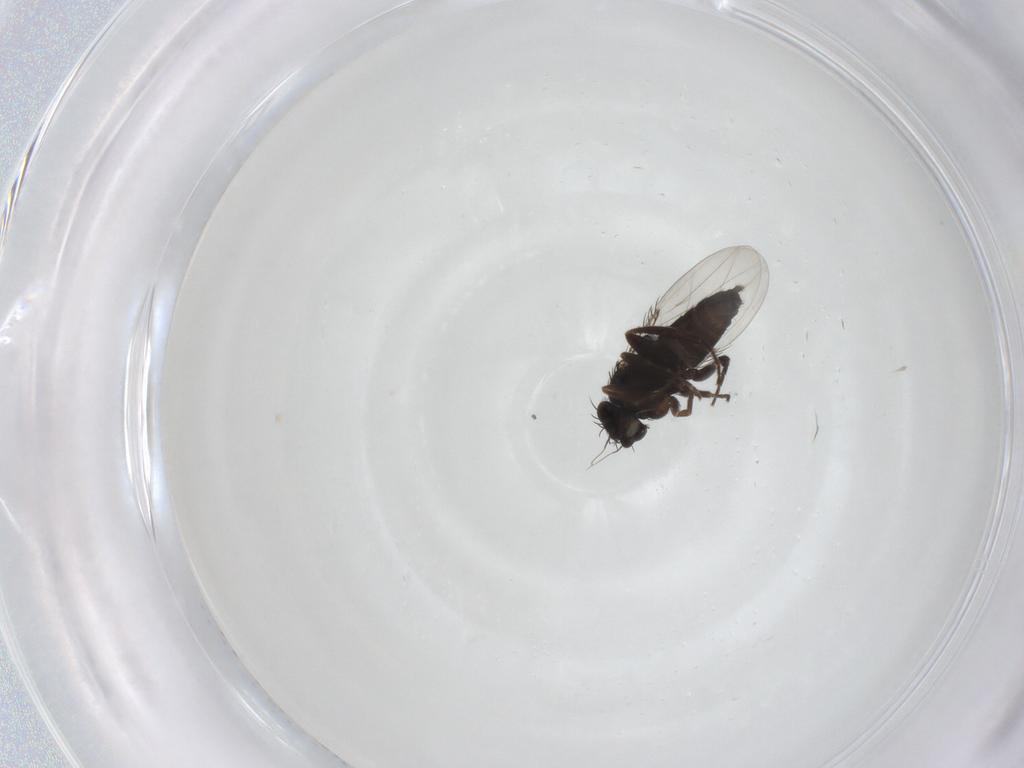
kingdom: Animalia
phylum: Arthropoda
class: Insecta
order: Diptera
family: Phoridae
